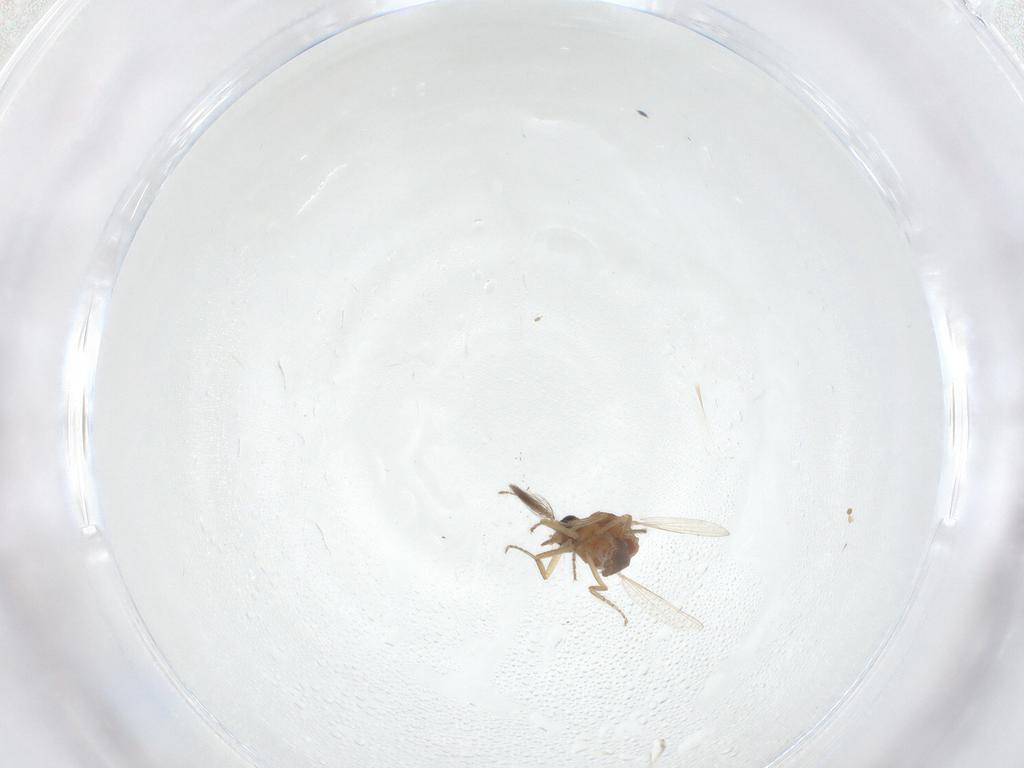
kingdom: Animalia
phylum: Arthropoda
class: Insecta
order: Diptera
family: Ceratopogonidae
